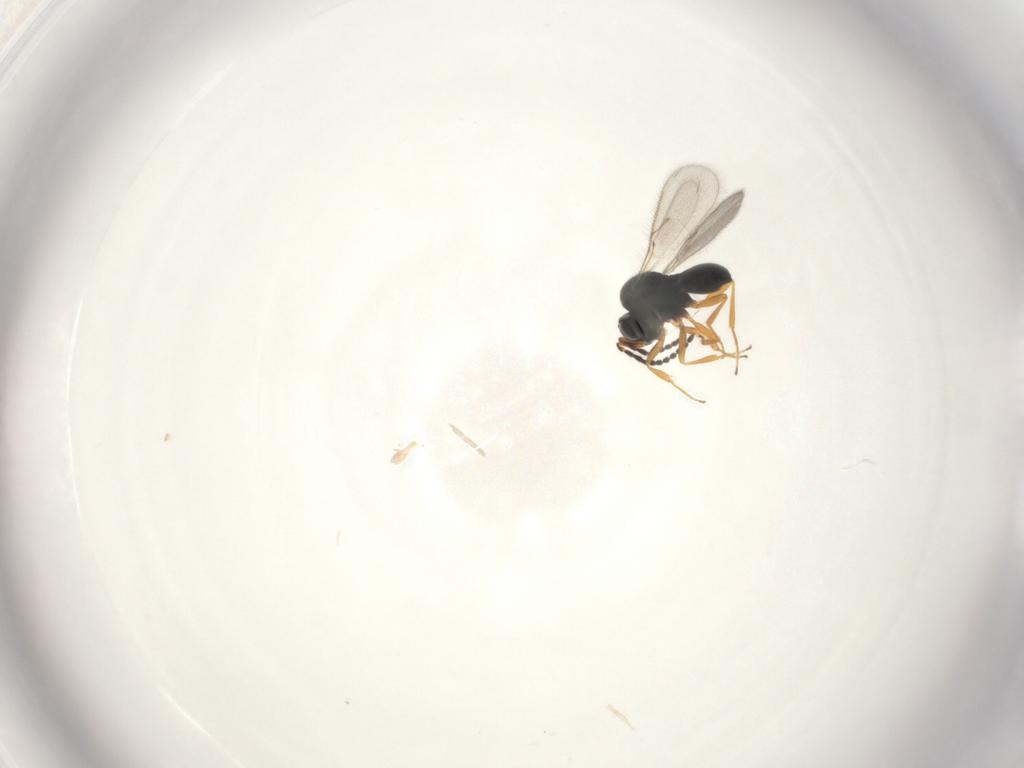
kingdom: Animalia
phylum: Arthropoda
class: Insecta
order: Hymenoptera
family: Scelionidae
